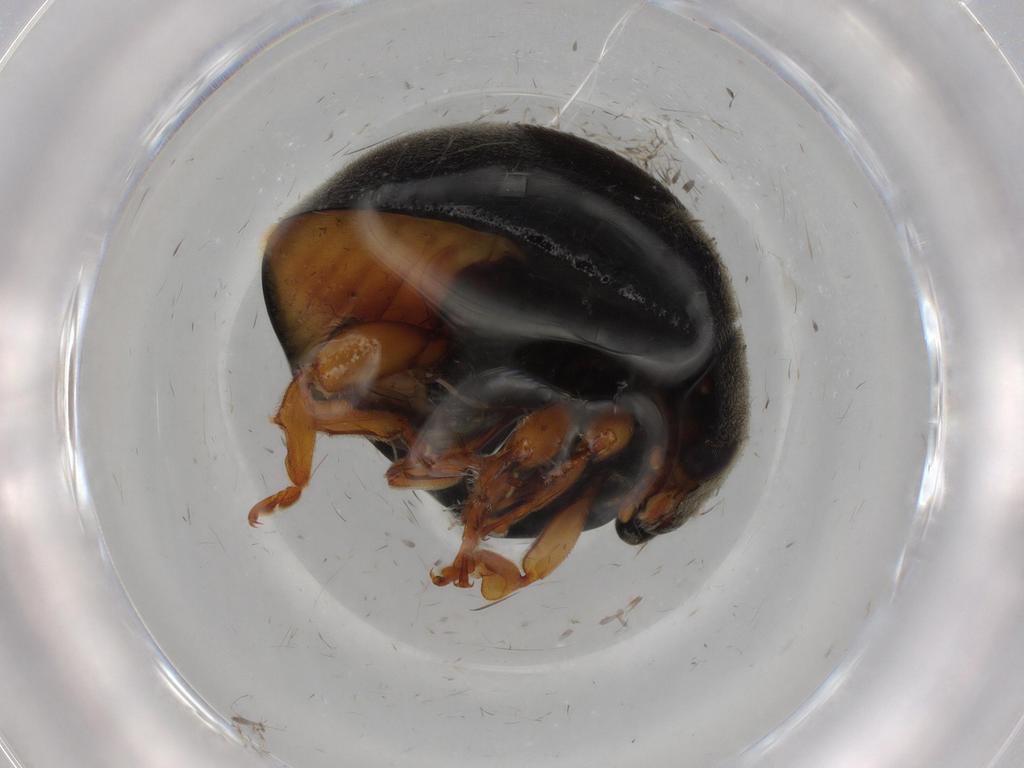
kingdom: Animalia
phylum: Arthropoda
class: Insecta
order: Coleoptera
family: Coccinellidae
